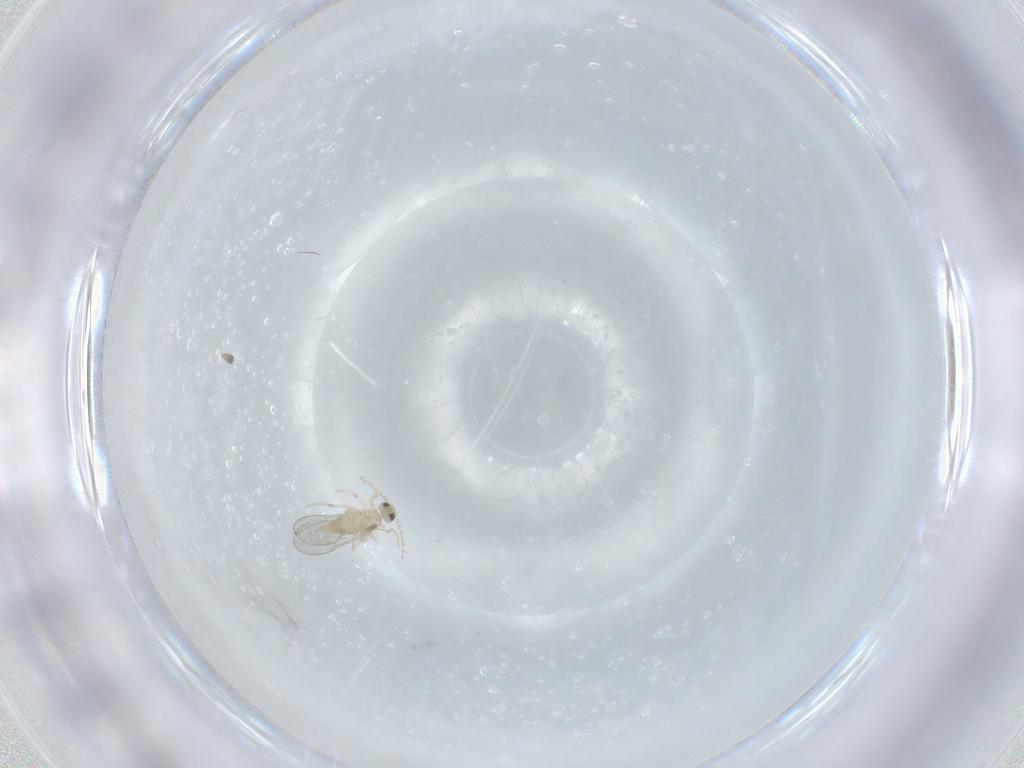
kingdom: Animalia
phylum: Arthropoda
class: Insecta
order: Diptera
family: Cecidomyiidae
